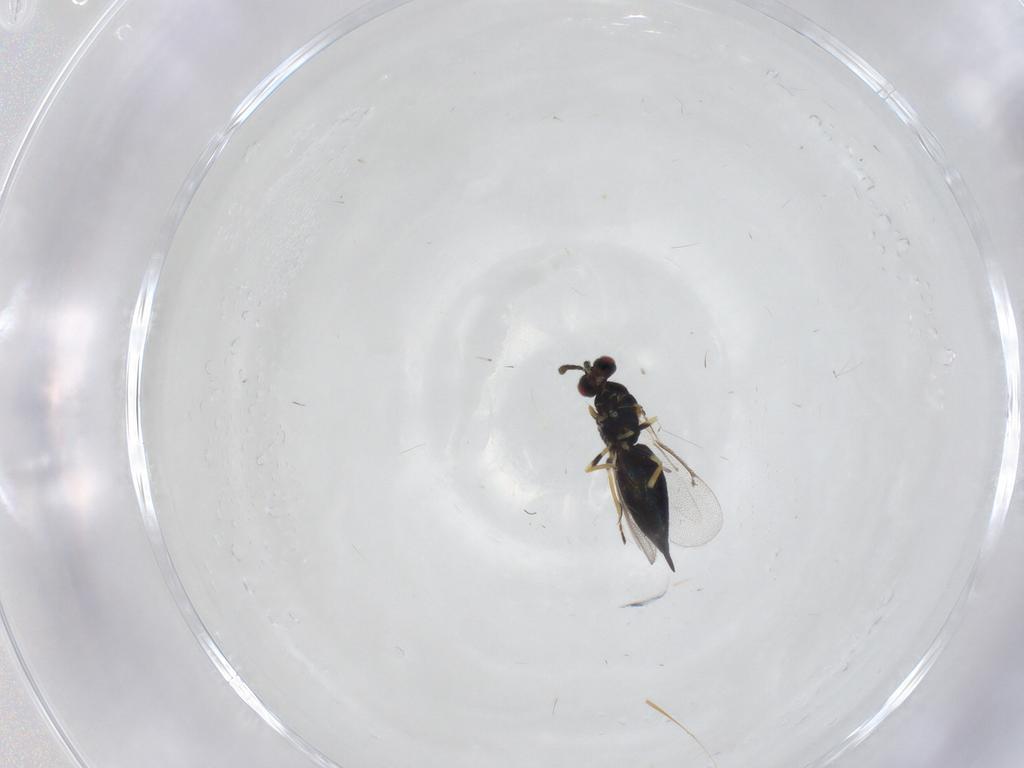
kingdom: Animalia
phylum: Arthropoda
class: Insecta
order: Hymenoptera
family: Eulophidae
